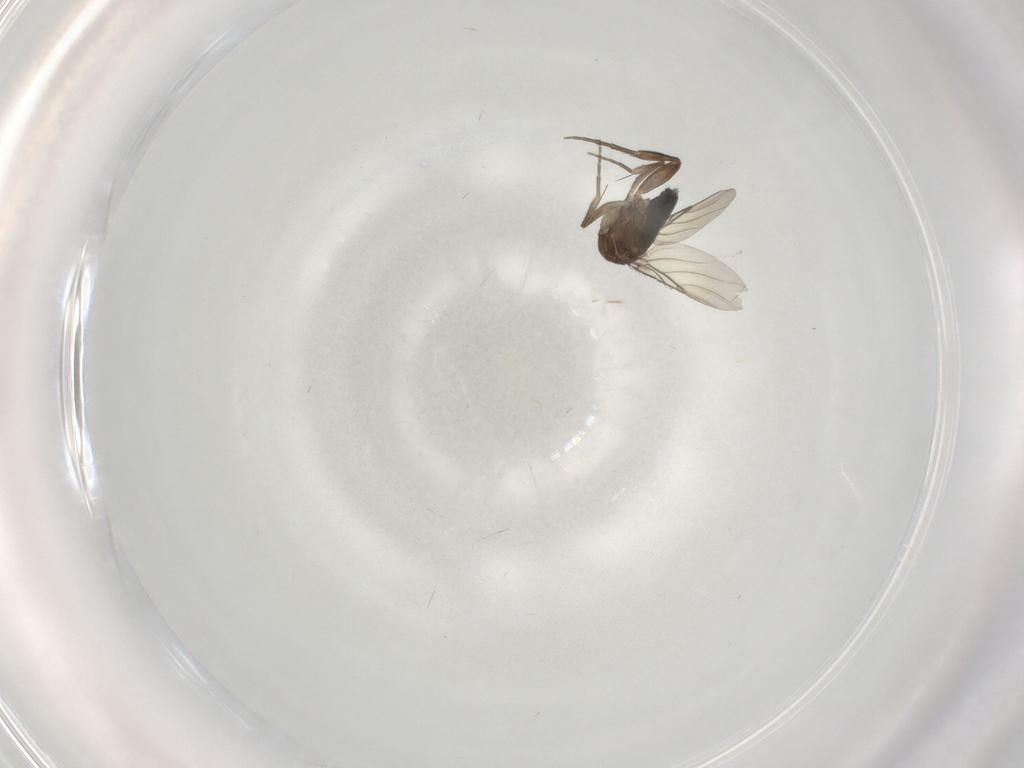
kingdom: Animalia
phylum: Arthropoda
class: Insecta
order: Diptera
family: Phoridae
